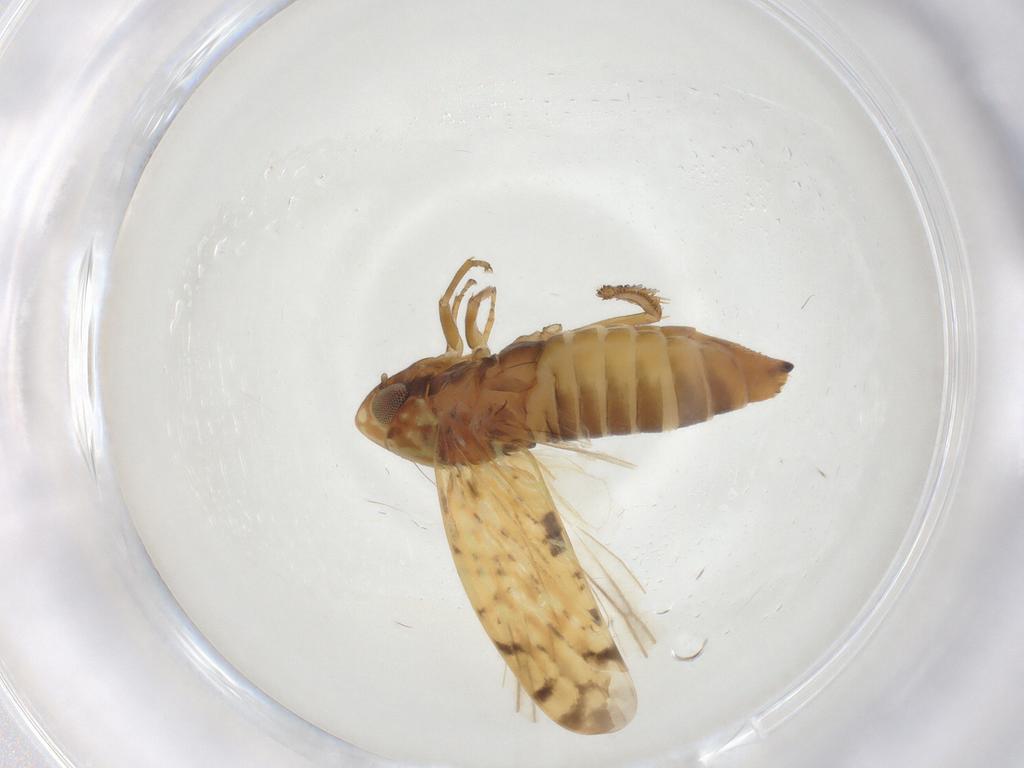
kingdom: Animalia
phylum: Arthropoda
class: Insecta
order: Hemiptera
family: Cicadellidae
